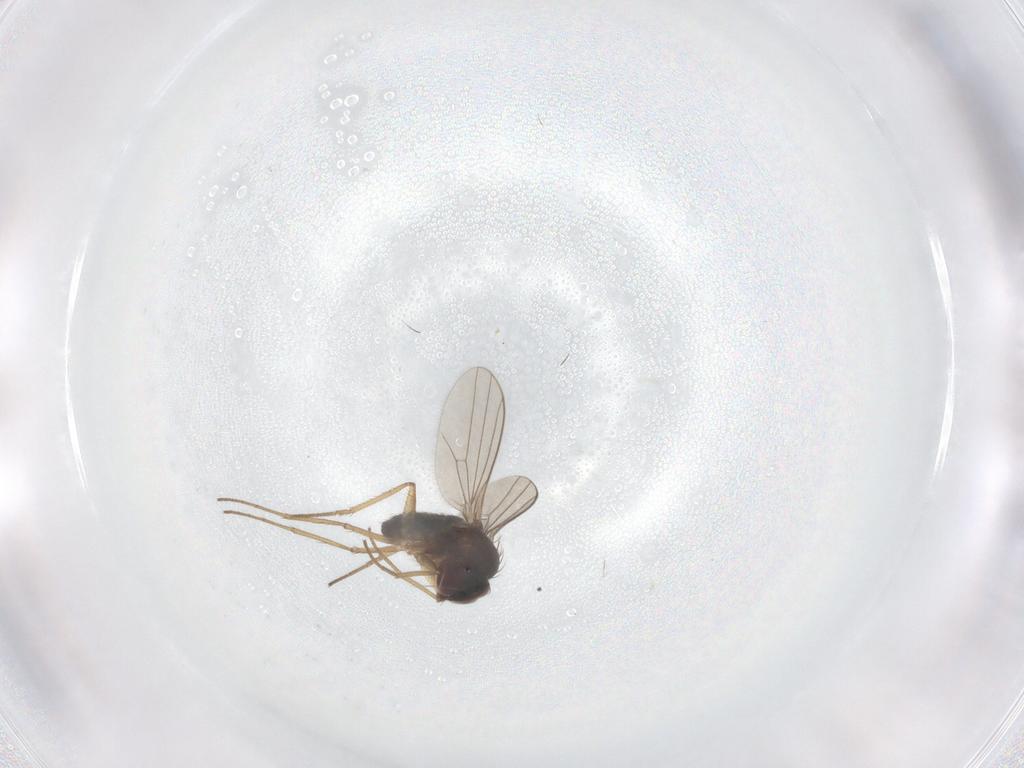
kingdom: Animalia
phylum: Arthropoda
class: Insecta
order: Diptera
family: Dolichopodidae
